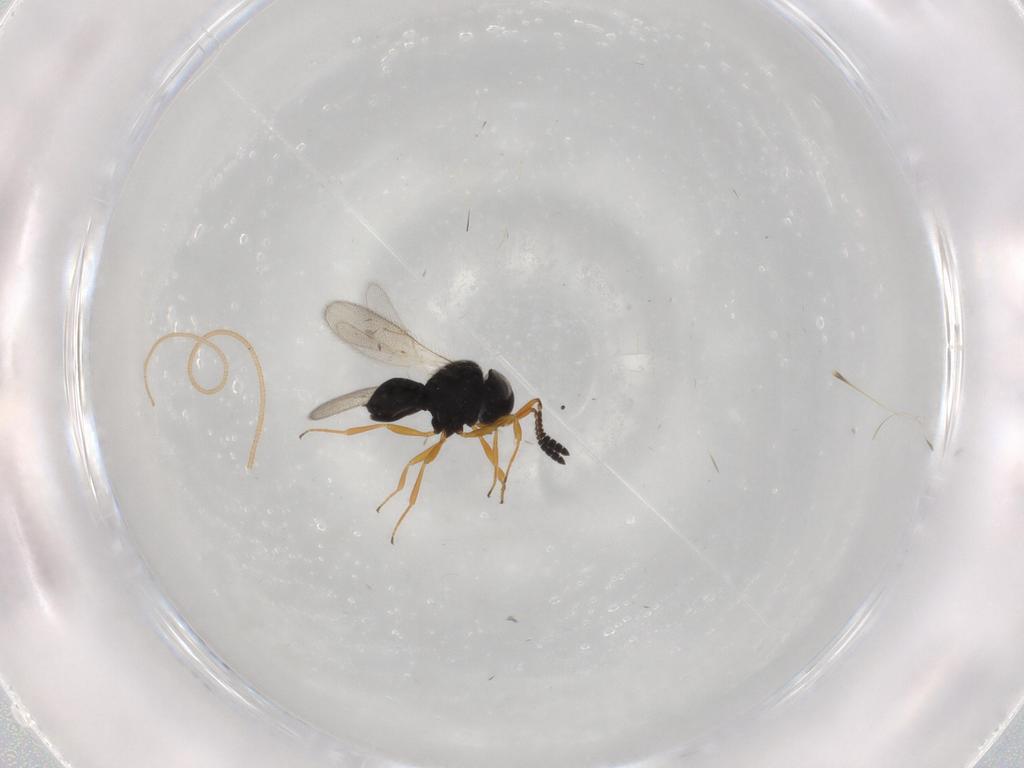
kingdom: Animalia
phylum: Arthropoda
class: Insecta
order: Hymenoptera
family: Scelionidae
